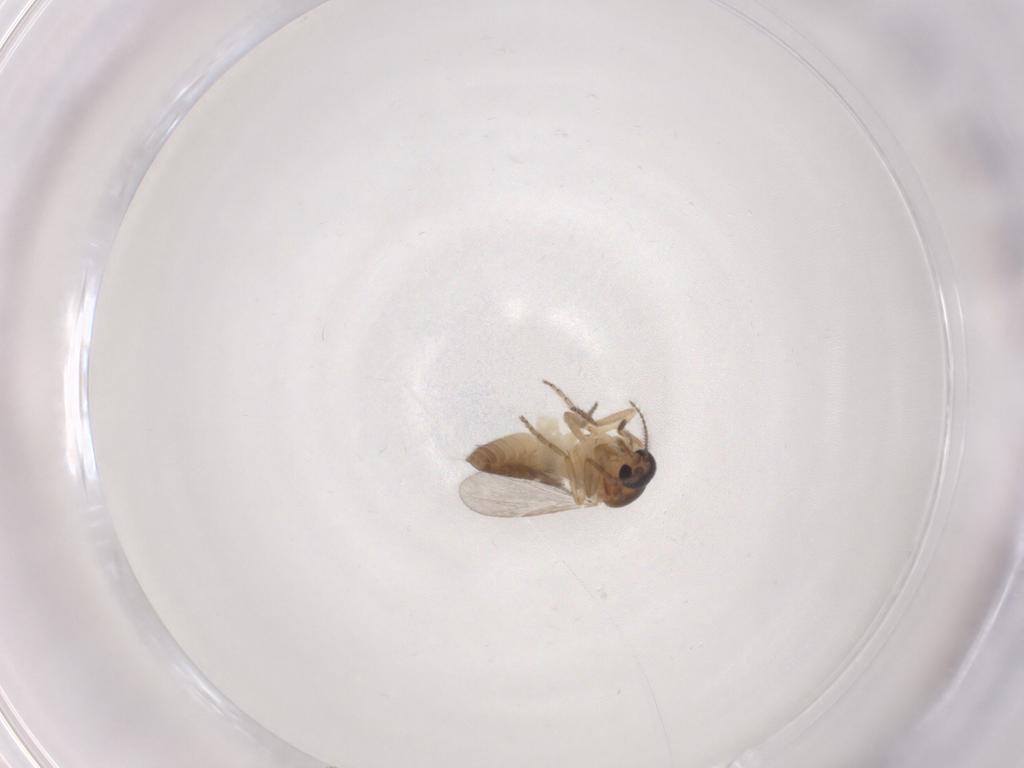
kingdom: Animalia
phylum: Arthropoda
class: Insecta
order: Diptera
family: Ceratopogonidae
